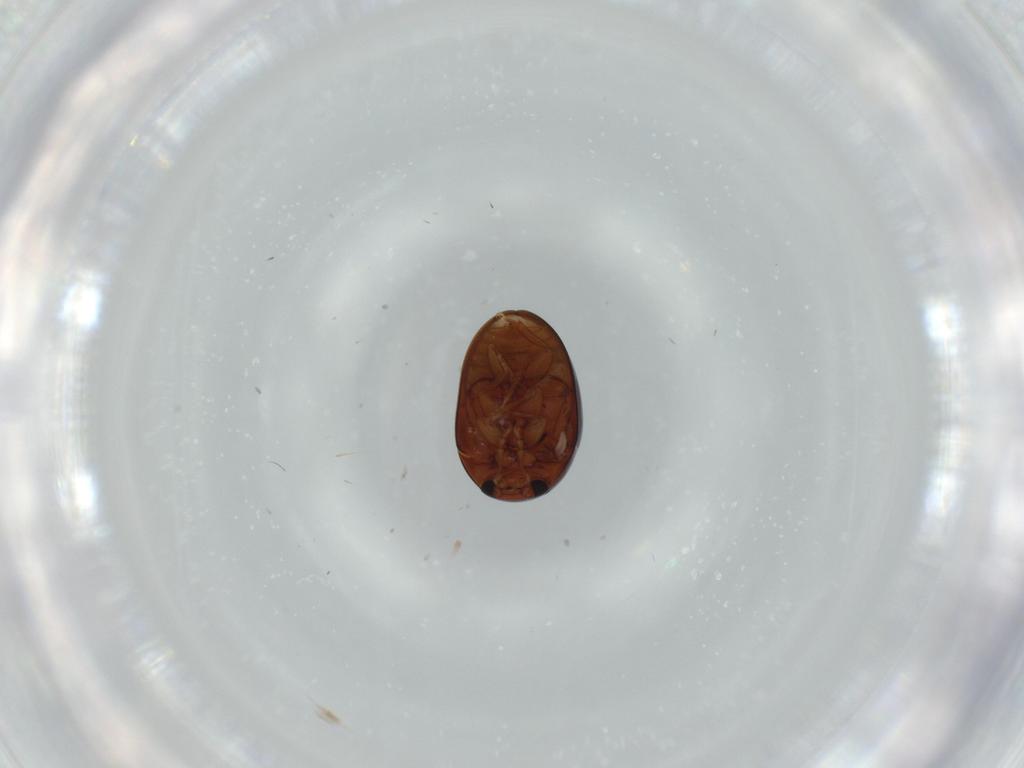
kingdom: Animalia
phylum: Arthropoda
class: Insecta
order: Coleoptera
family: Phalacridae
